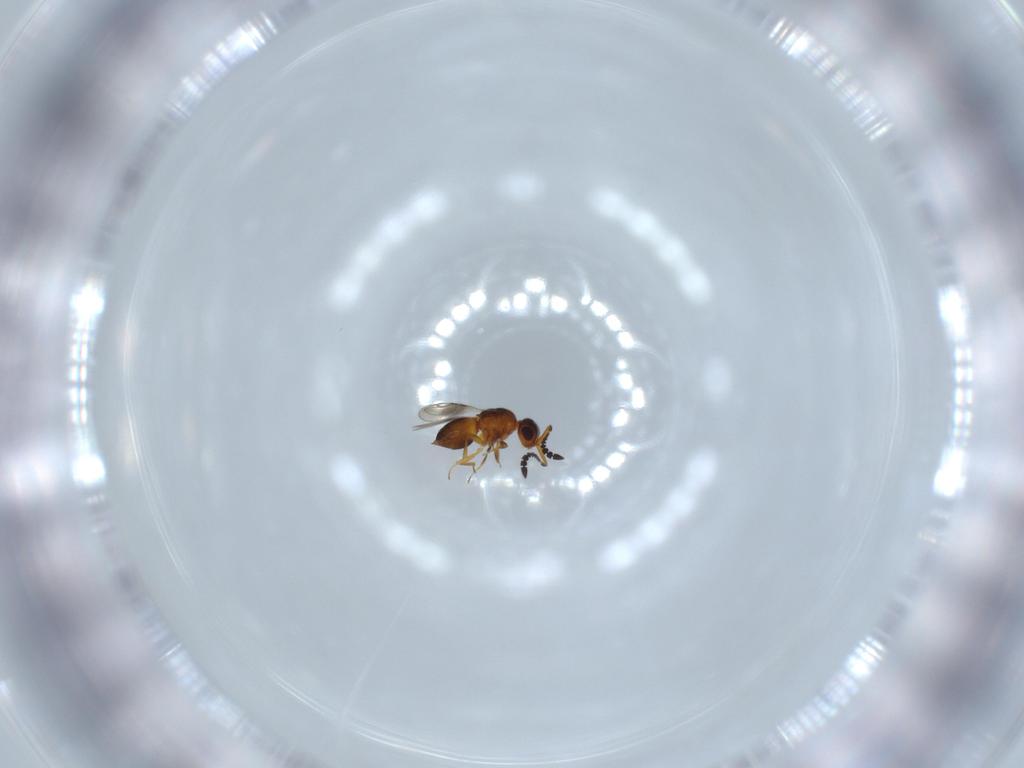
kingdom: Animalia
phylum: Arthropoda
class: Insecta
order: Hymenoptera
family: Ceraphronidae
